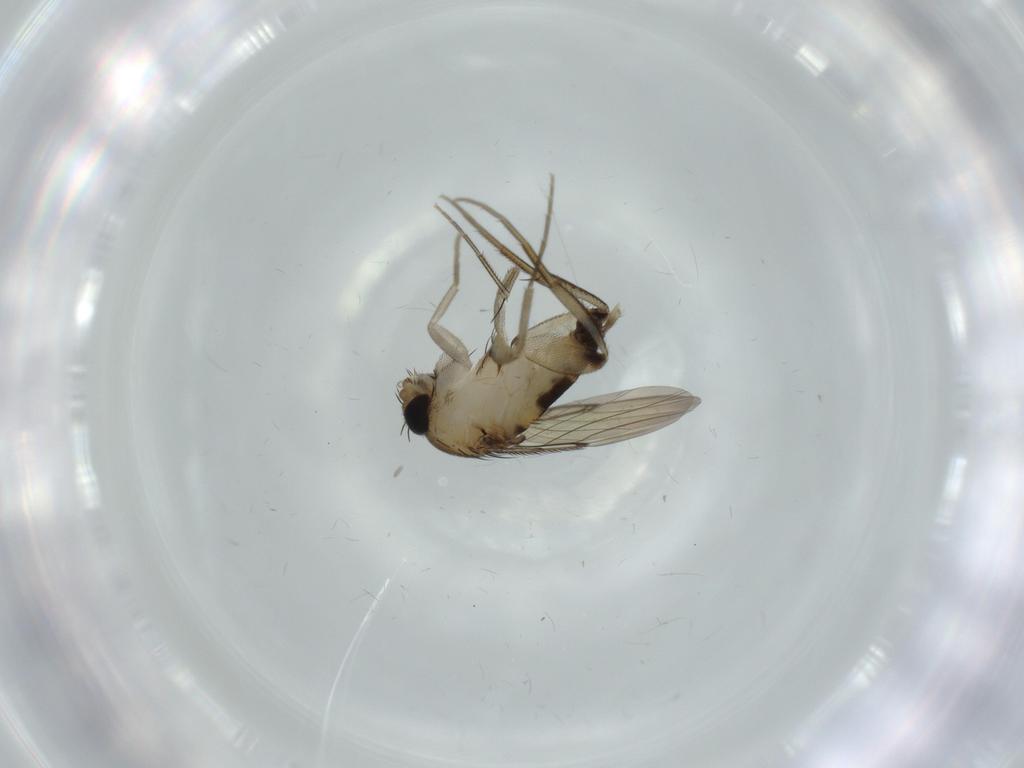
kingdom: Animalia
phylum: Arthropoda
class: Insecta
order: Diptera
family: Phoridae
